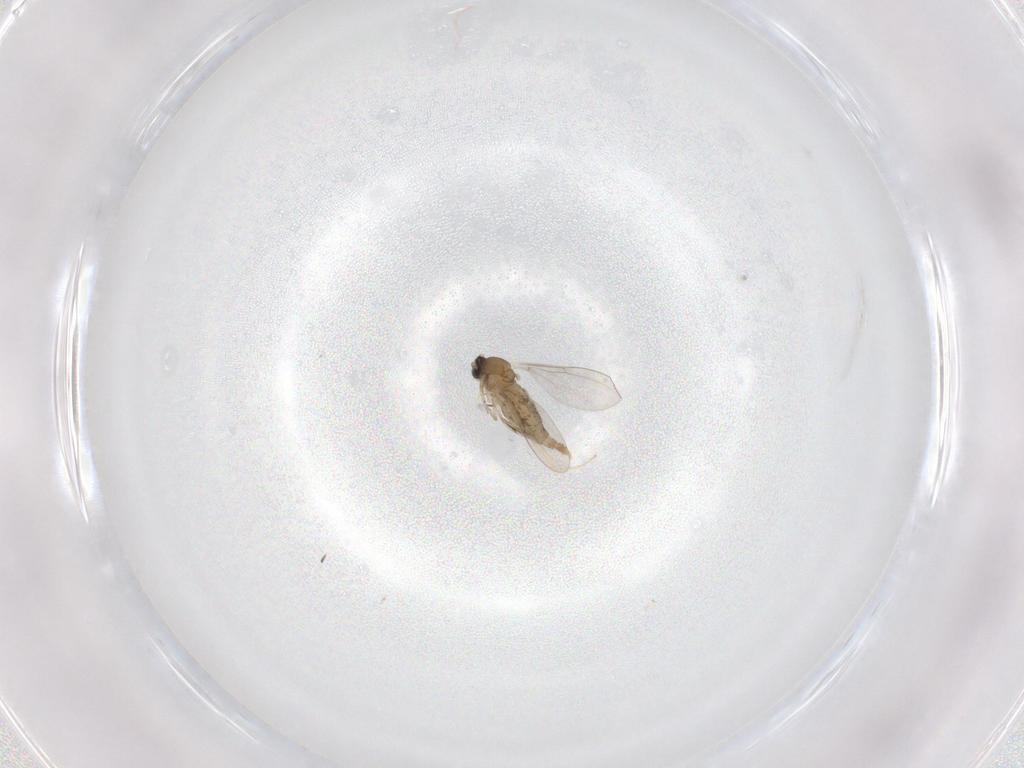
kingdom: Animalia
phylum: Arthropoda
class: Insecta
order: Diptera
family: Cecidomyiidae
